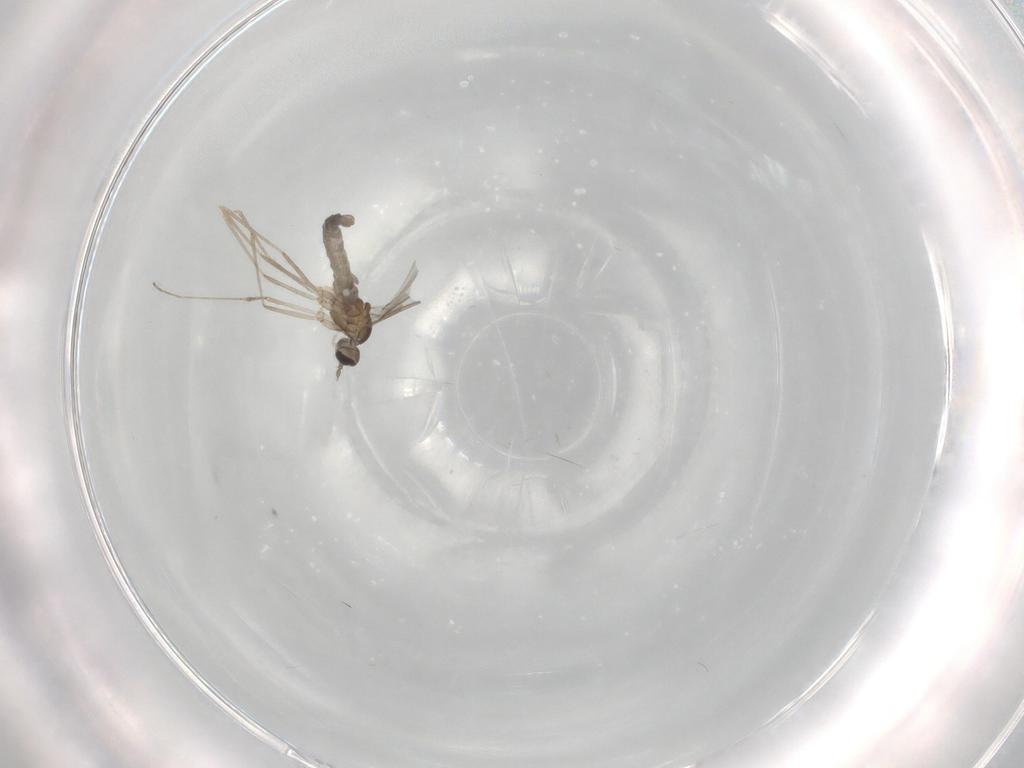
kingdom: Animalia
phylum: Arthropoda
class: Insecta
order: Diptera
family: Cecidomyiidae
